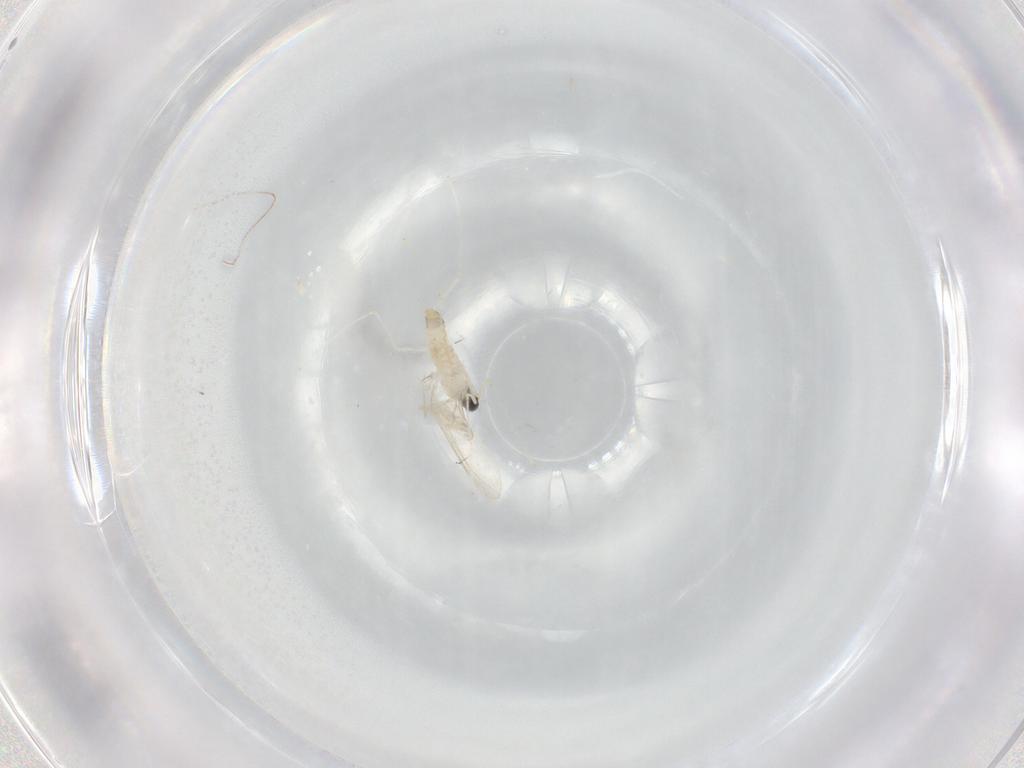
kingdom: Animalia
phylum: Arthropoda
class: Insecta
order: Diptera
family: Cecidomyiidae
